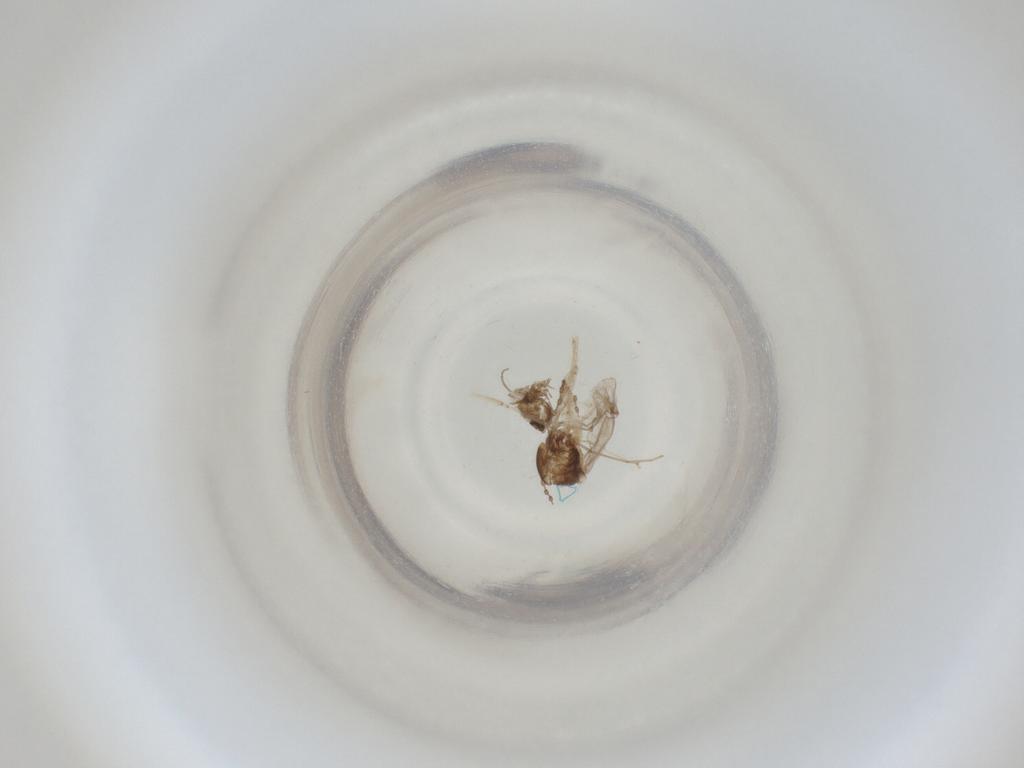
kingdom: Animalia
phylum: Arthropoda
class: Insecta
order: Diptera
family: Cecidomyiidae
